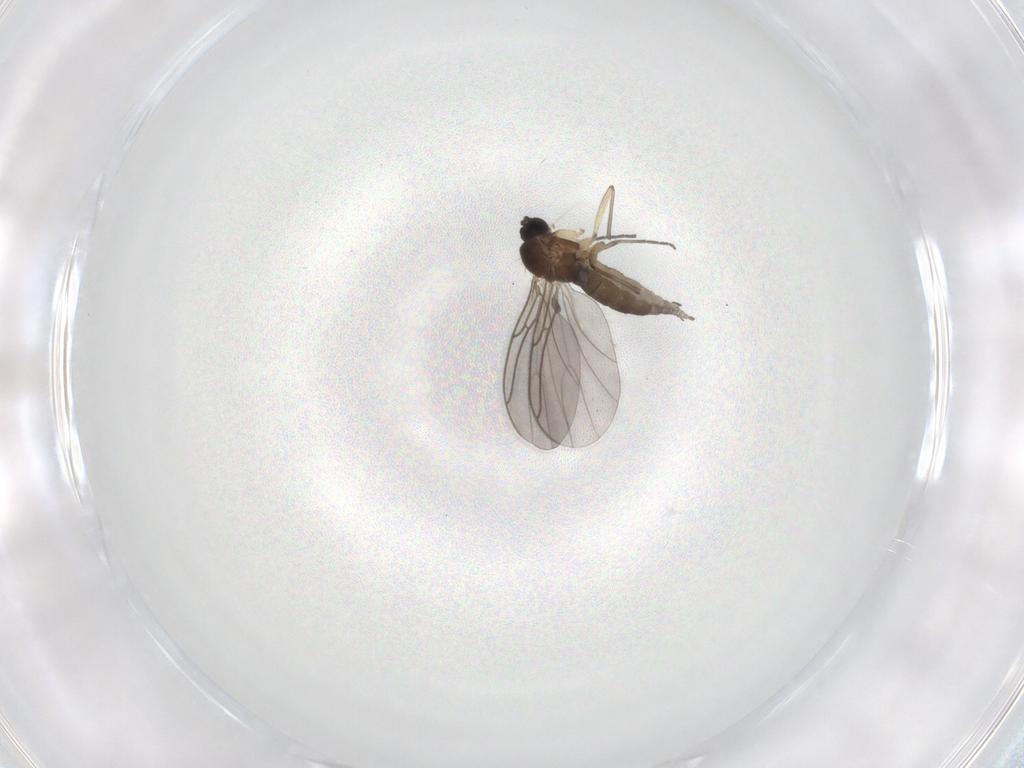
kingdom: Animalia
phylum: Arthropoda
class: Insecta
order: Diptera
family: Sciaridae
